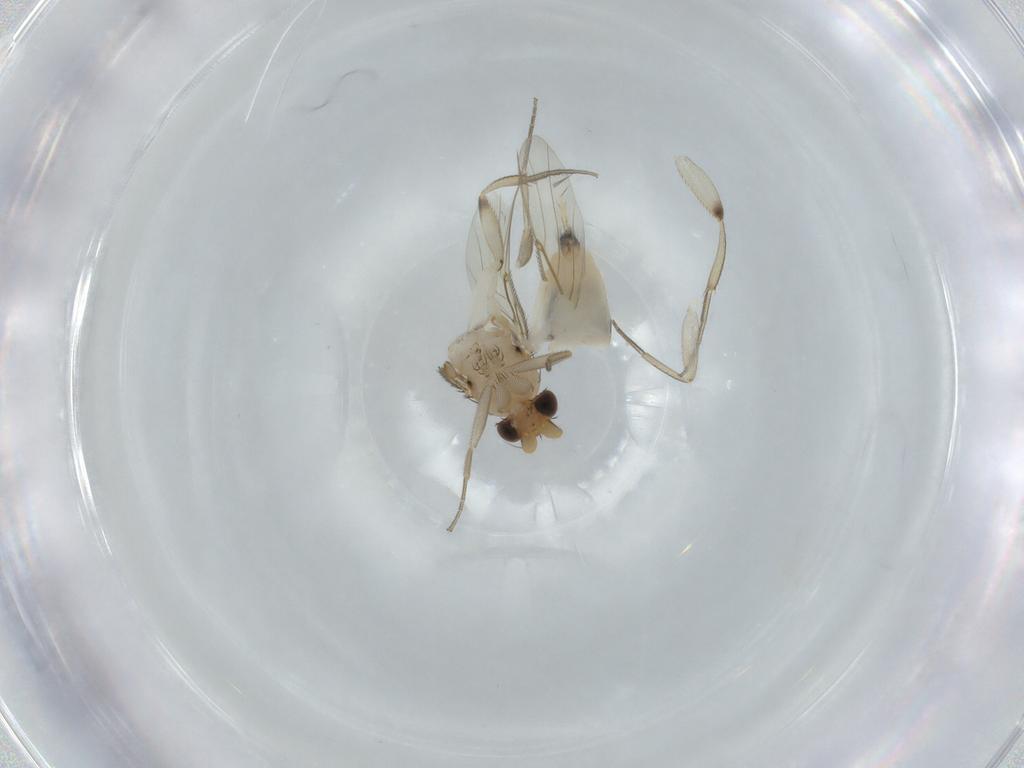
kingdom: Animalia
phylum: Arthropoda
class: Insecta
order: Diptera
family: Phoridae
